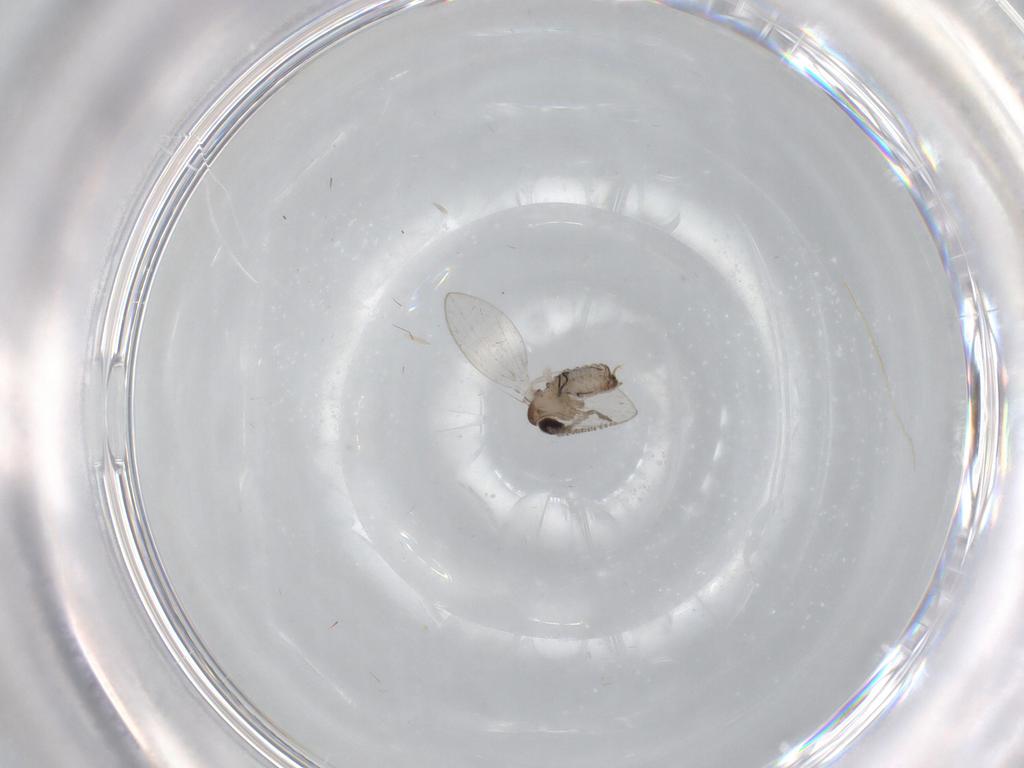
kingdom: Animalia
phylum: Arthropoda
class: Insecta
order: Diptera
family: Psychodidae
